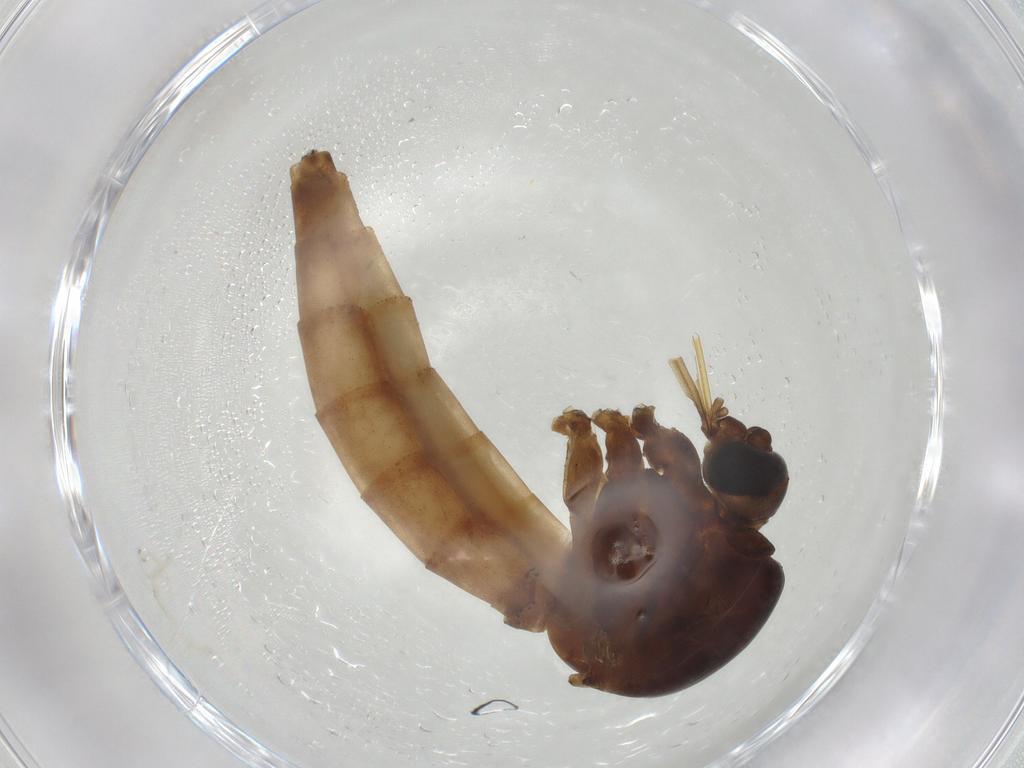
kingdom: Animalia
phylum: Arthropoda
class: Insecta
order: Diptera
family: Culicidae
